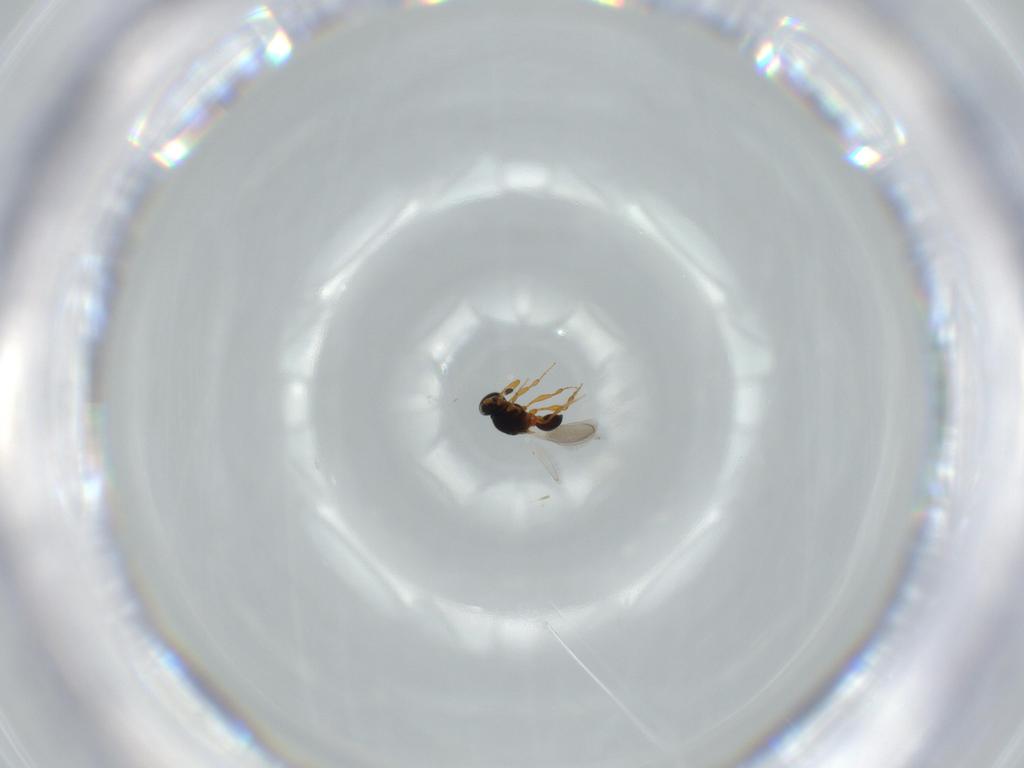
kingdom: Animalia
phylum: Arthropoda
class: Insecta
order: Hymenoptera
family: Platygastridae
